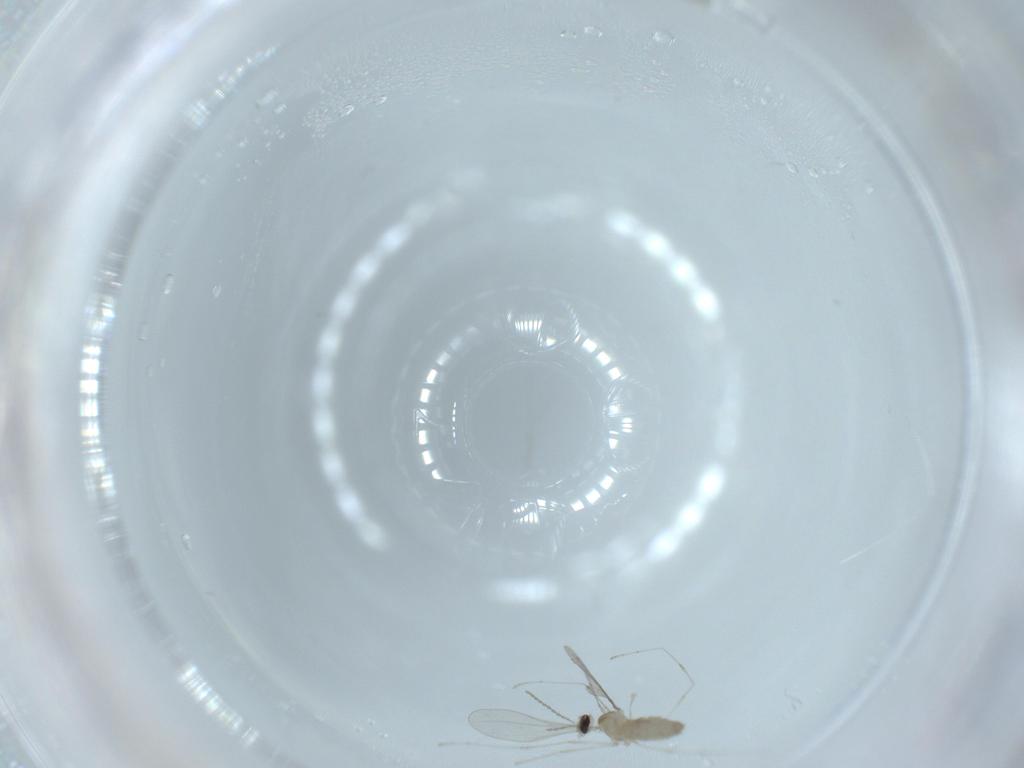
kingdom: Animalia
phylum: Arthropoda
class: Insecta
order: Diptera
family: Cecidomyiidae
